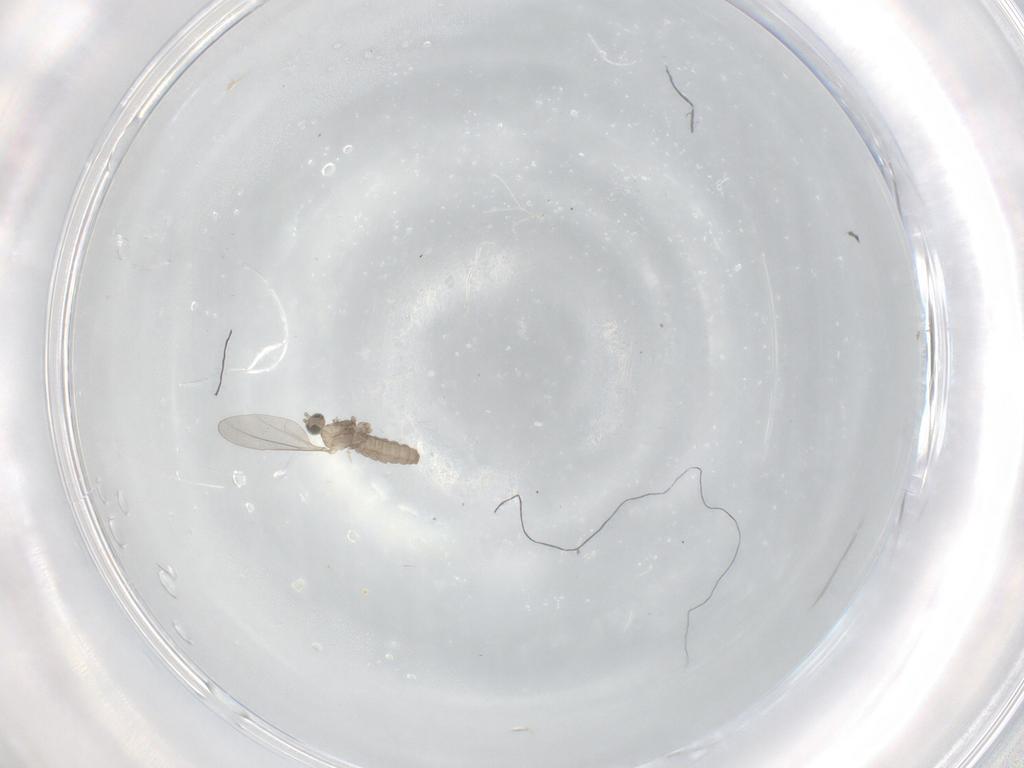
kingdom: Animalia
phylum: Arthropoda
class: Insecta
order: Diptera
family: Cecidomyiidae
